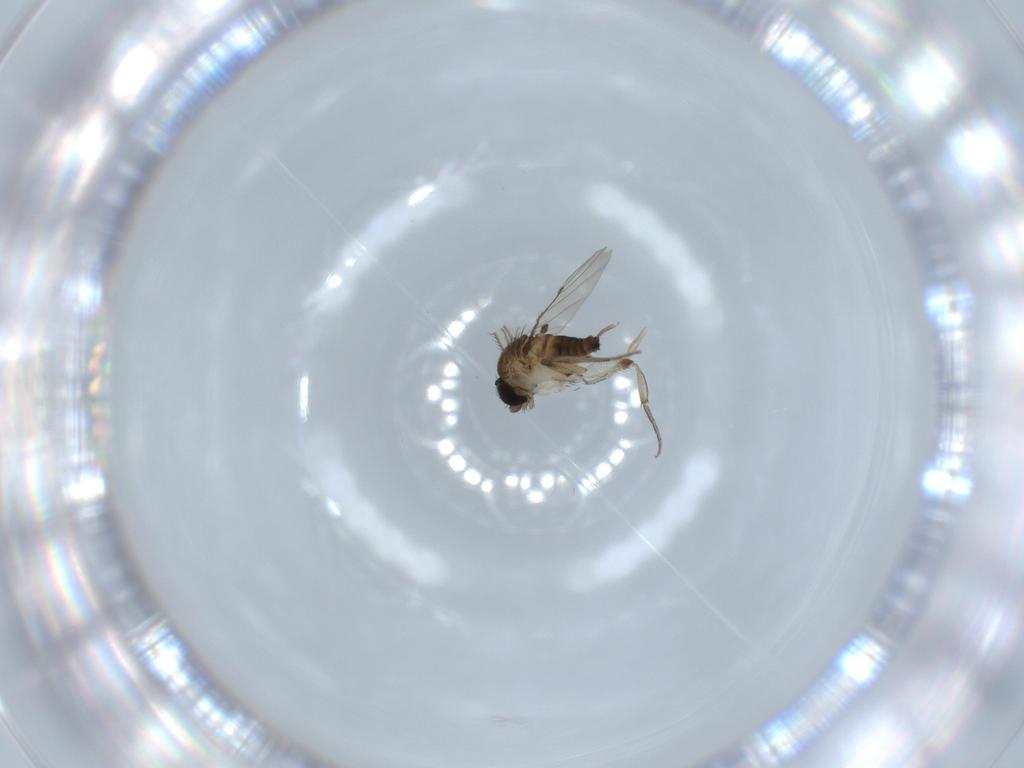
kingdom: Animalia
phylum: Arthropoda
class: Insecta
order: Diptera
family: Phoridae
